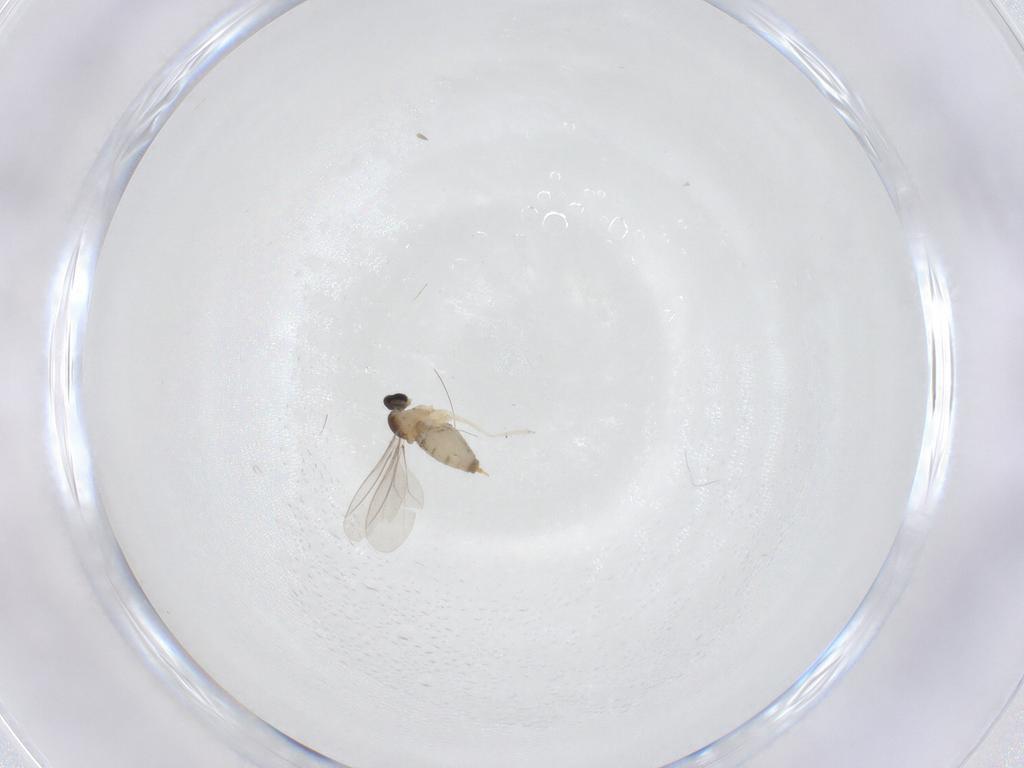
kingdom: Animalia
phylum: Arthropoda
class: Insecta
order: Diptera
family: Cecidomyiidae
